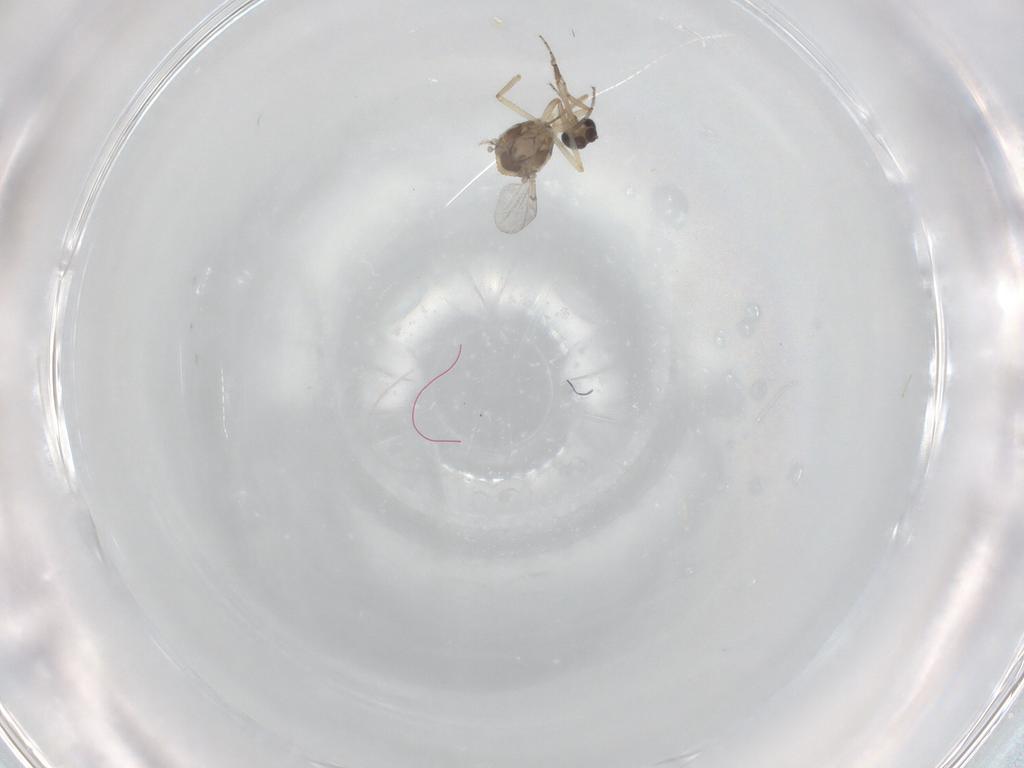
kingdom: Animalia
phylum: Arthropoda
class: Insecta
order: Diptera
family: Ceratopogonidae
